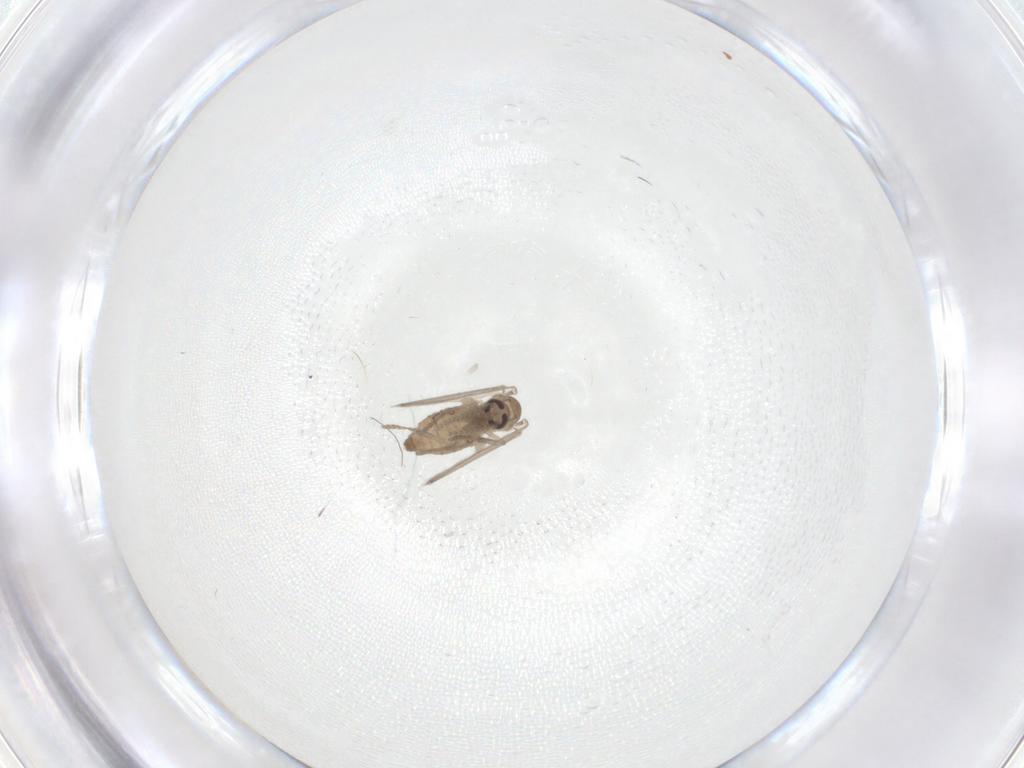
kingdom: Animalia
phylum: Arthropoda
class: Insecta
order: Diptera
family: Psychodidae
